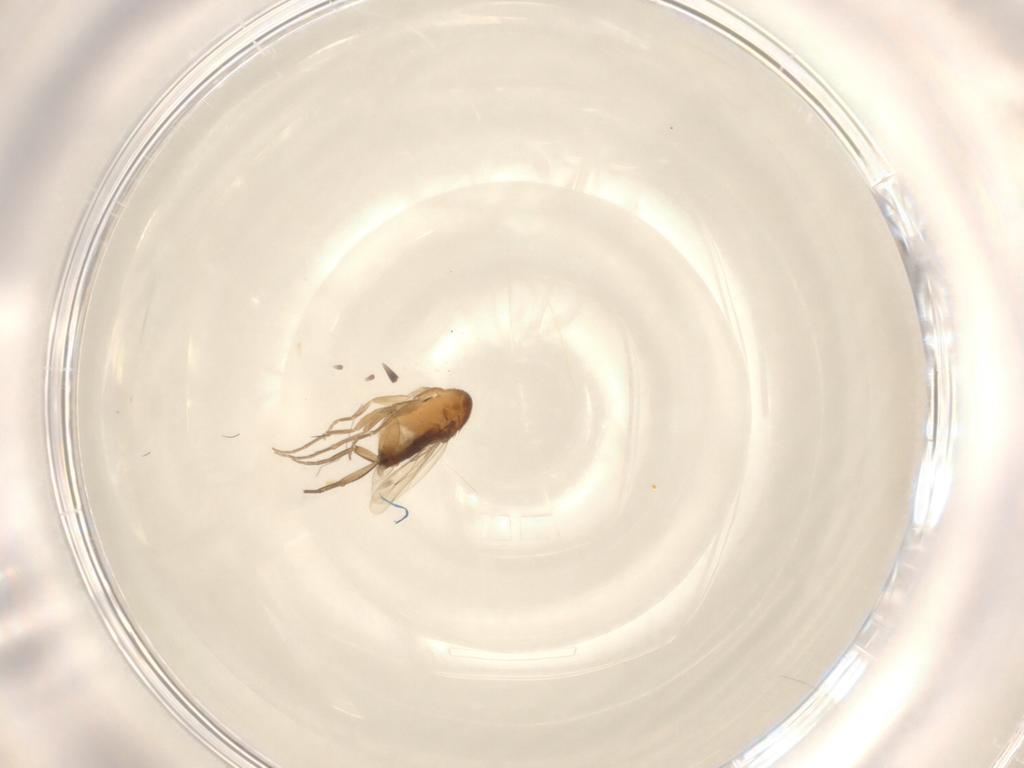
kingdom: Animalia
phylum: Arthropoda
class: Insecta
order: Diptera
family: Phoridae
